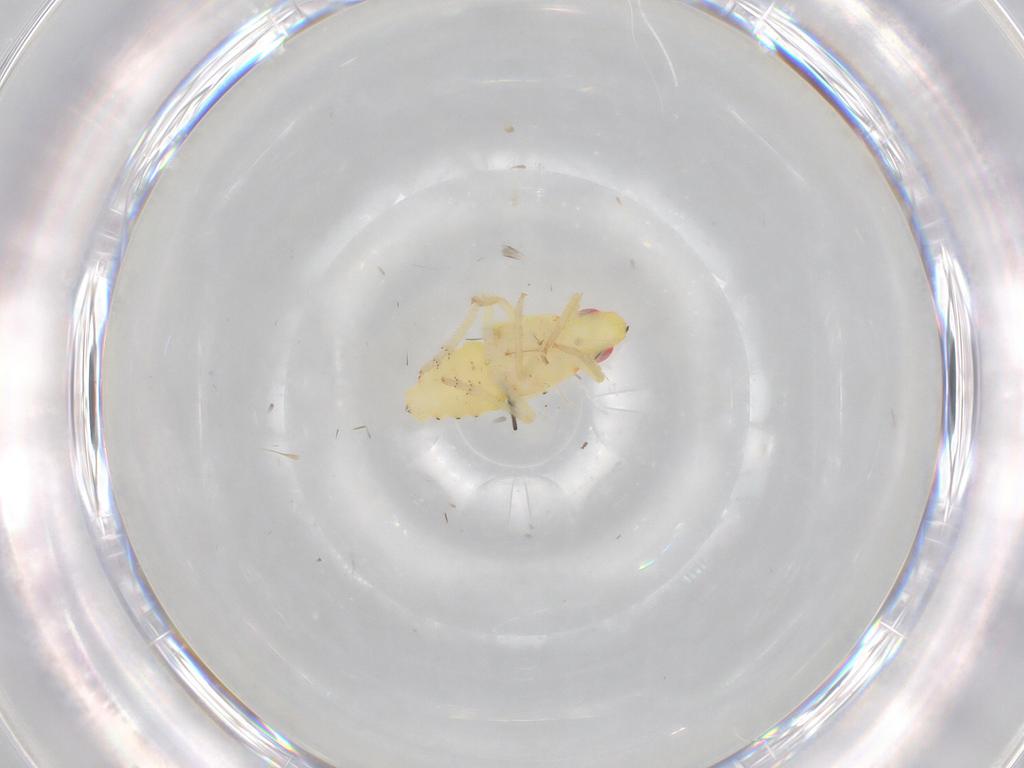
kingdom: Animalia
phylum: Arthropoda
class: Insecta
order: Hemiptera
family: Tropiduchidae
